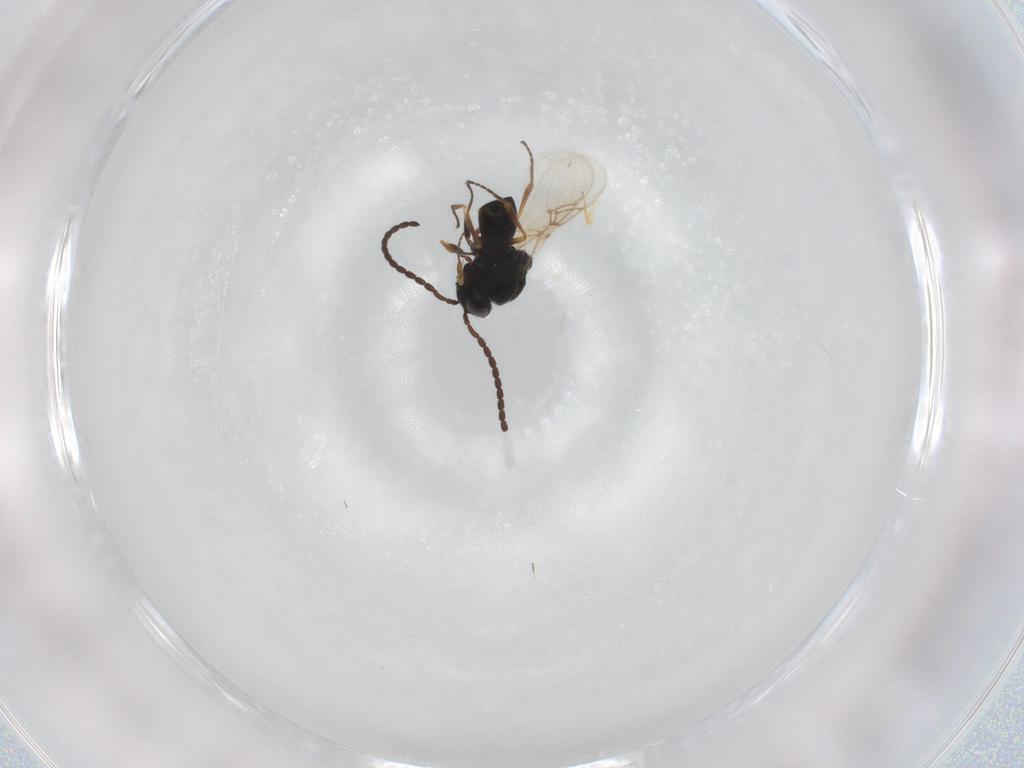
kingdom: Animalia
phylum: Arthropoda
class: Insecta
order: Hymenoptera
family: Figitidae
